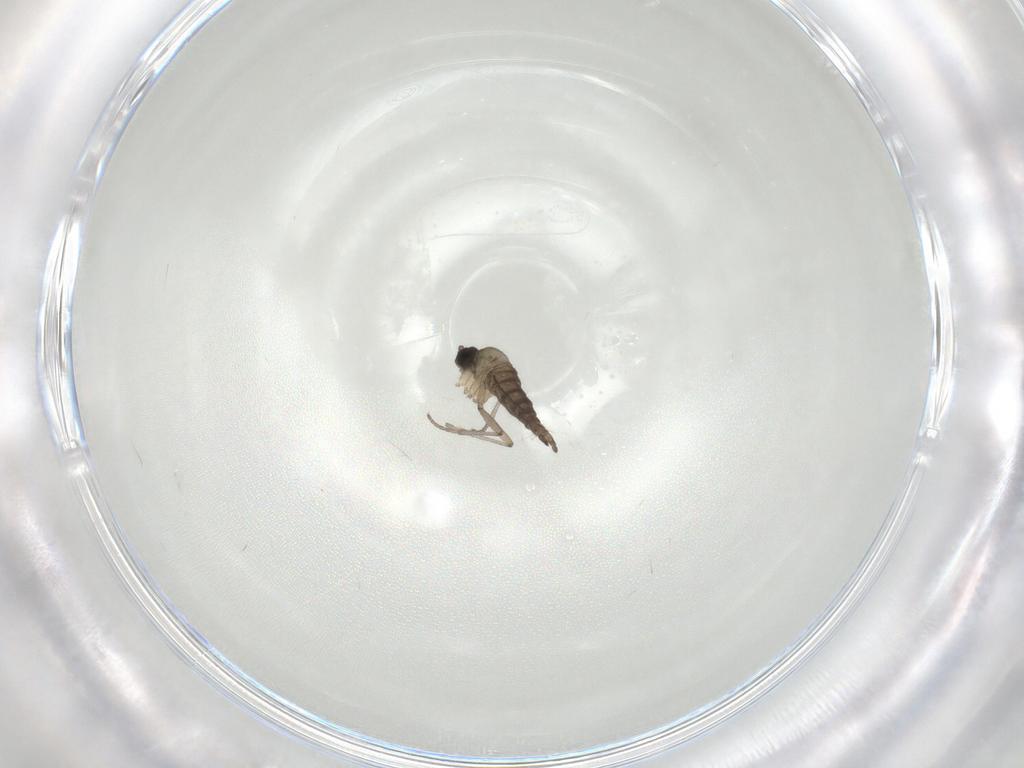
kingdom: Animalia
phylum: Arthropoda
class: Insecta
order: Diptera
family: Sciaridae
